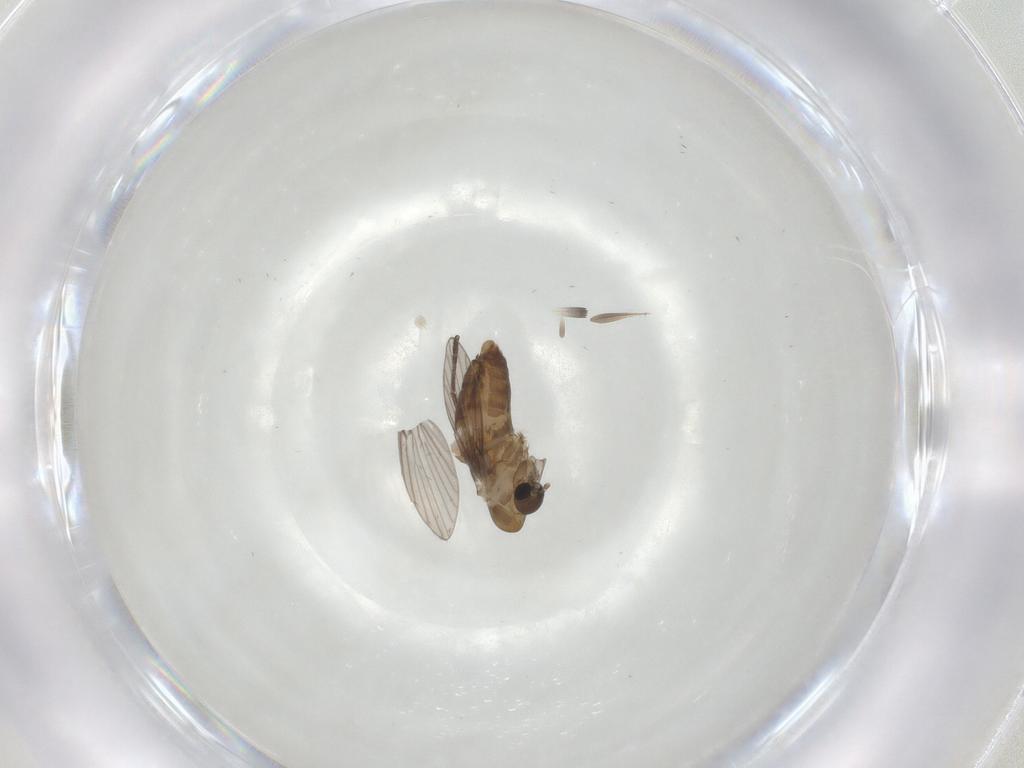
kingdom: Animalia
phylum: Arthropoda
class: Insecta
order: Diptera
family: Psychodidae
